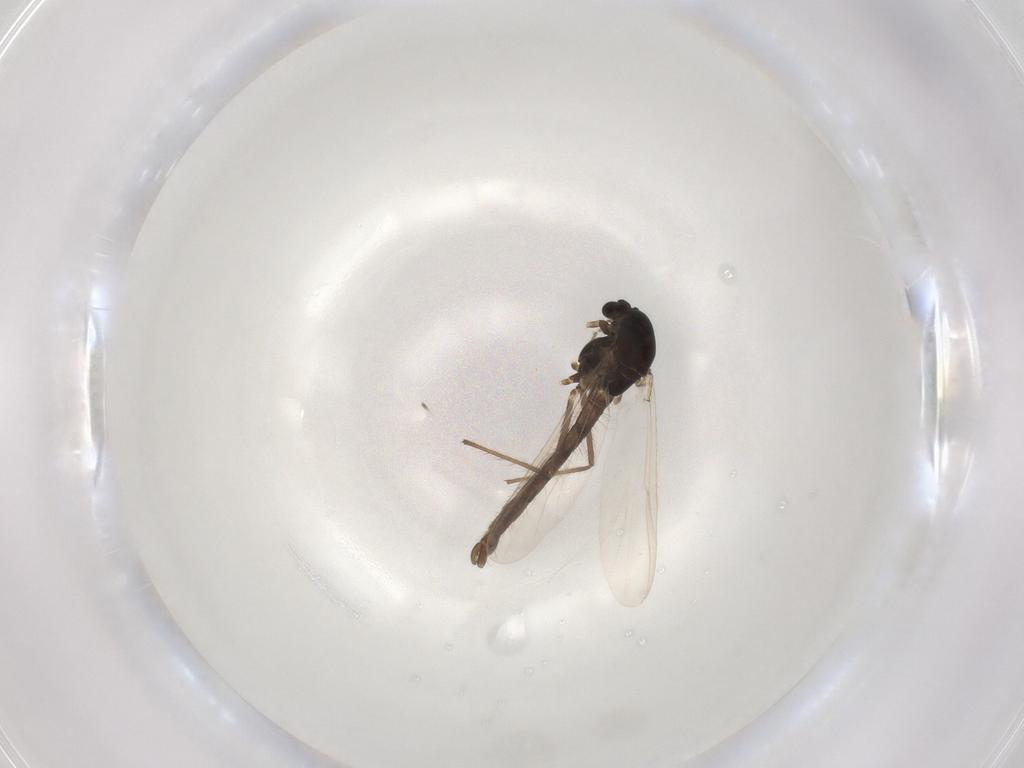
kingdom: Animalia
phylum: Arthropoda
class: Insecta
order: Diptera
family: Chironomidae
